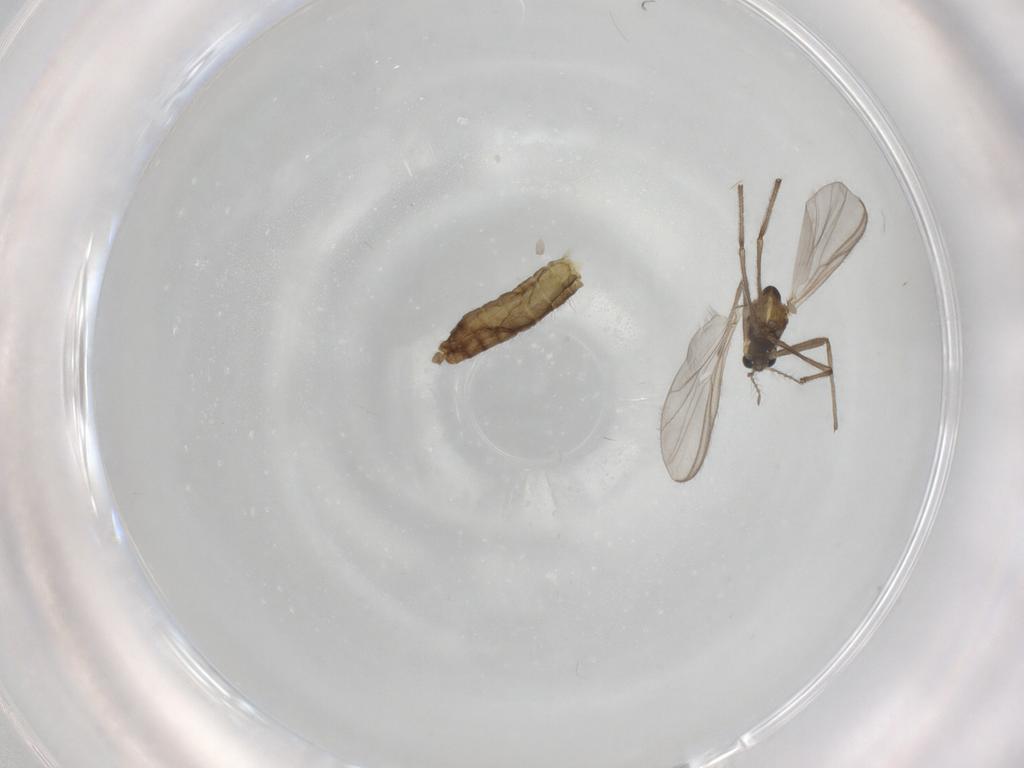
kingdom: Animalia
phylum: Arthropoda
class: Insecta
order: Diptera
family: Chironomidae
